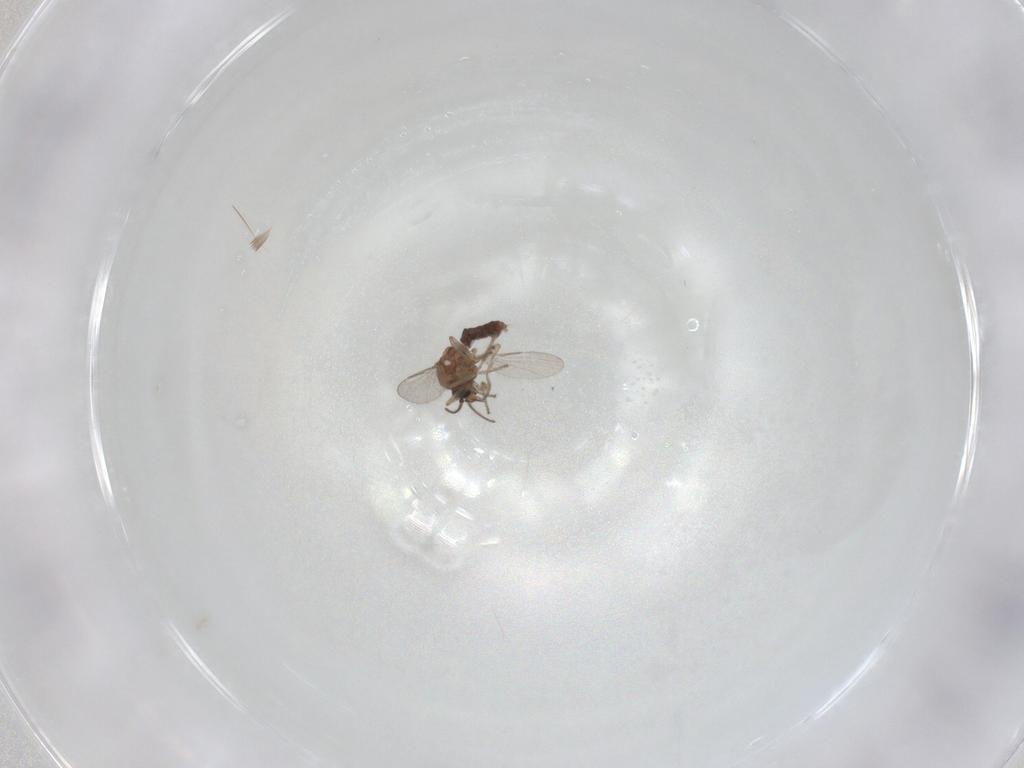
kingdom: Animalia
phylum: Arthropoda
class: Insecta
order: Diptera
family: Ceratopogonidae
